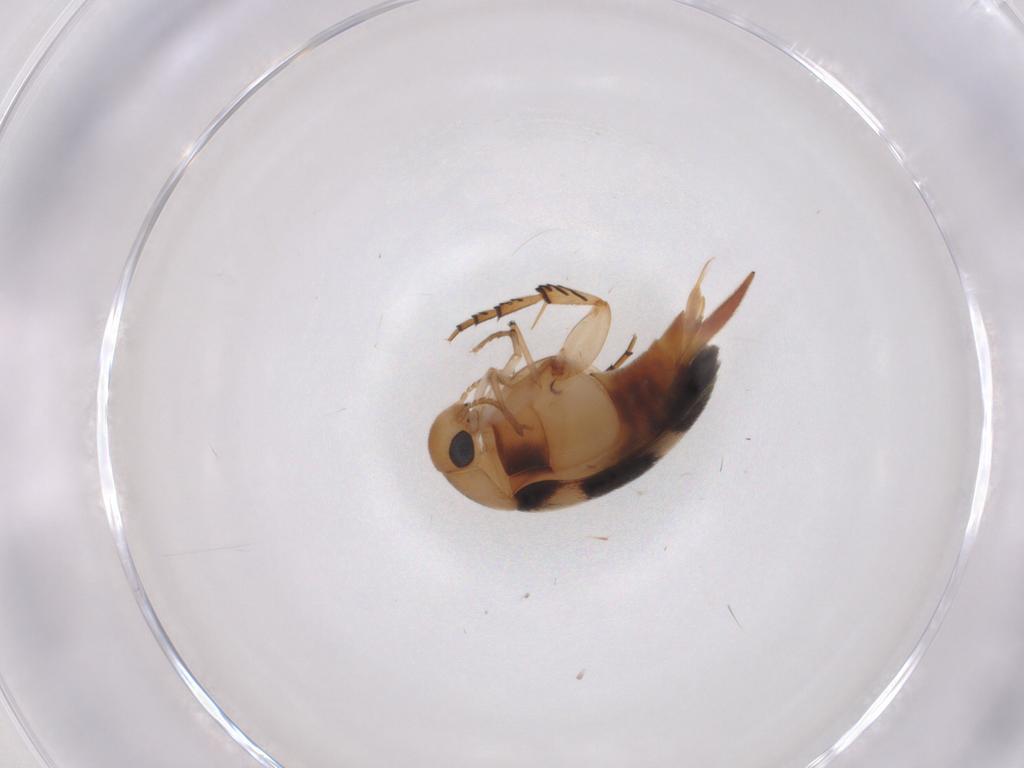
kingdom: Animalia
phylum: Arthropoda
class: Insecta
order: Coleoptera
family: Mordellidae
